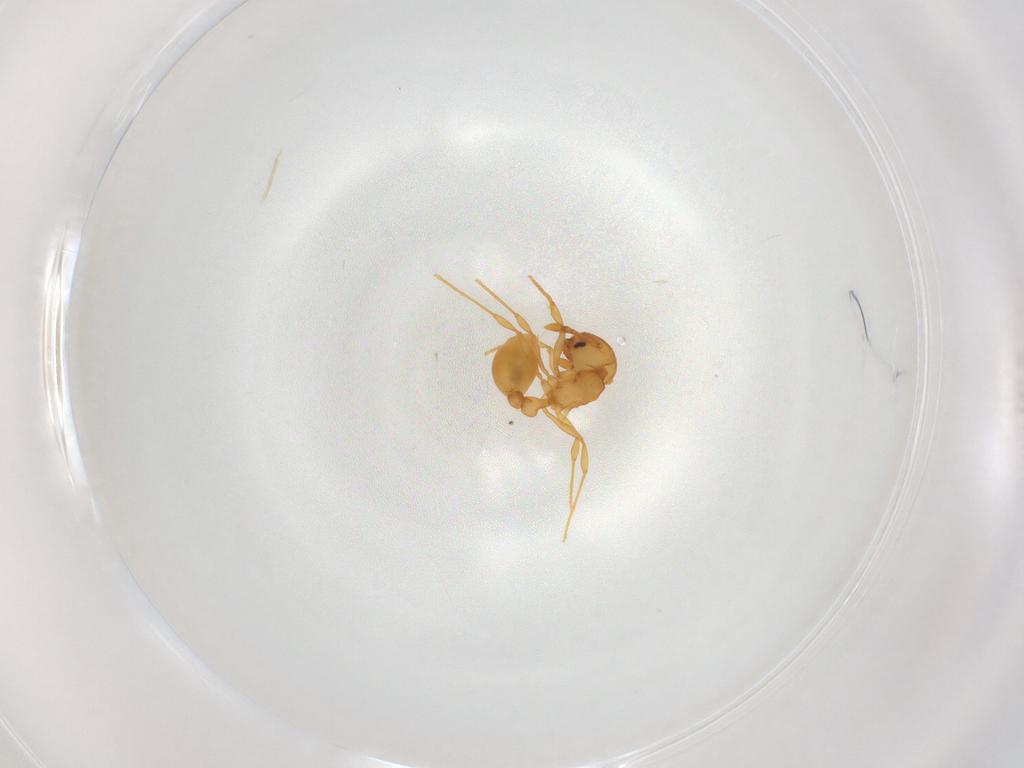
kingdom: Animalia
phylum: Arthropoda
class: Insecta
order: Hymenoptera
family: Formicidae
